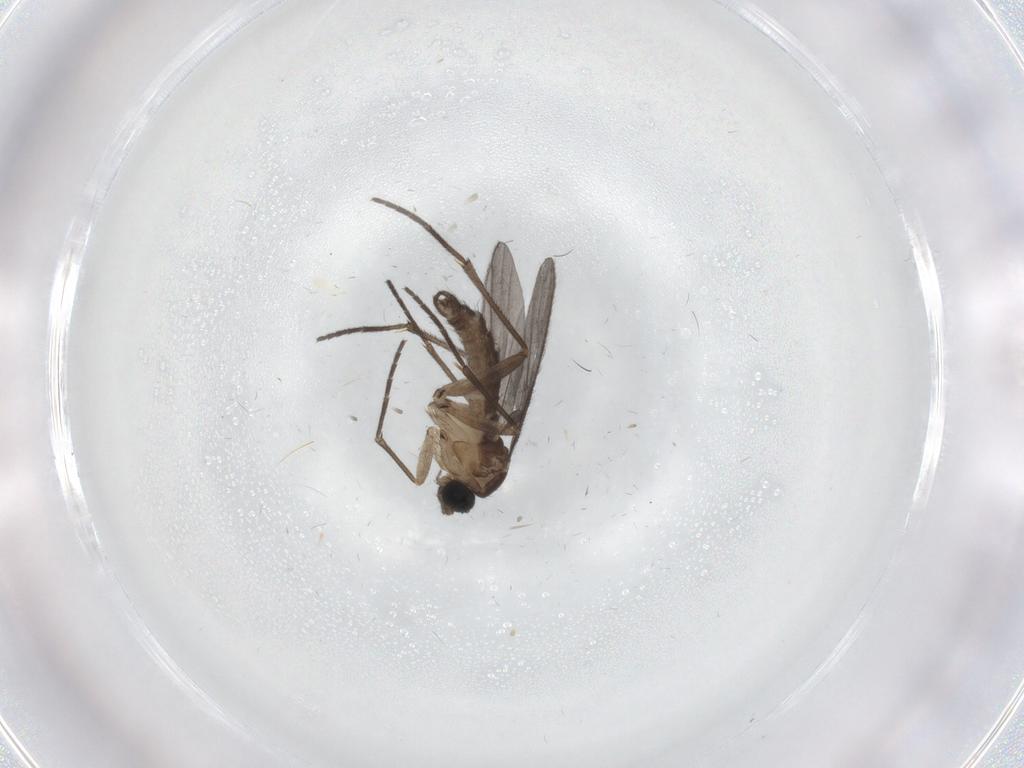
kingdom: Animalia
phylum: Arthropoda
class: Insecta
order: Diptera
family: Sciaridae
